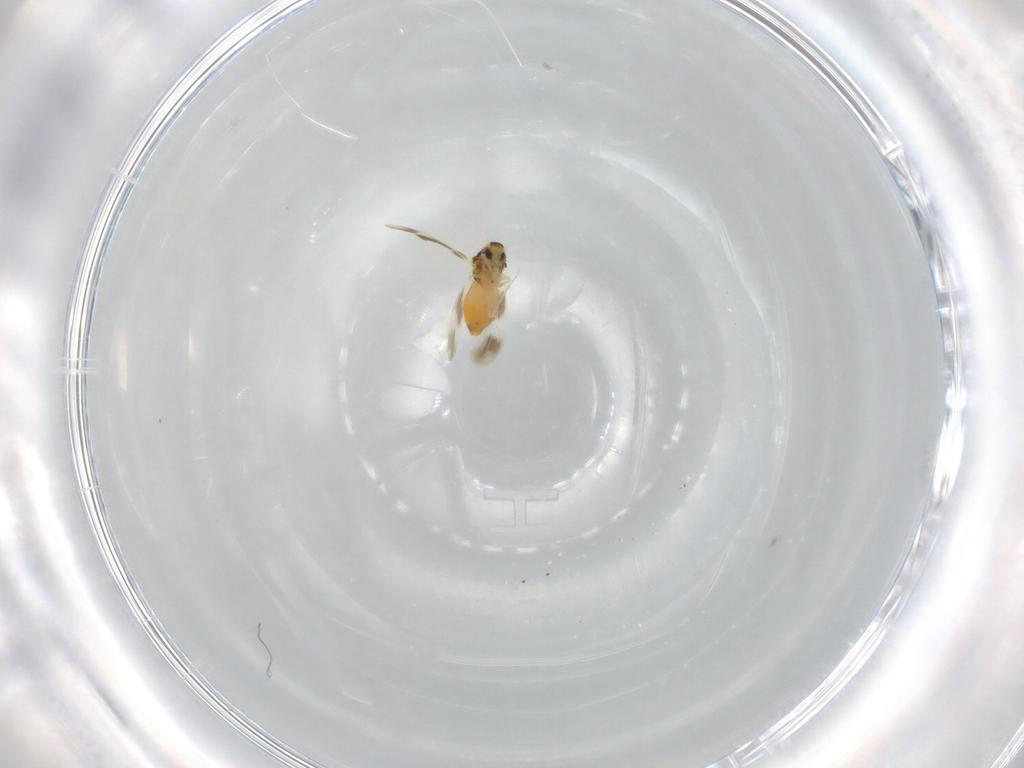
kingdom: Animalia
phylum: Arthropoda
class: Insecta
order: Hemiptera
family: Aleyrodidae
